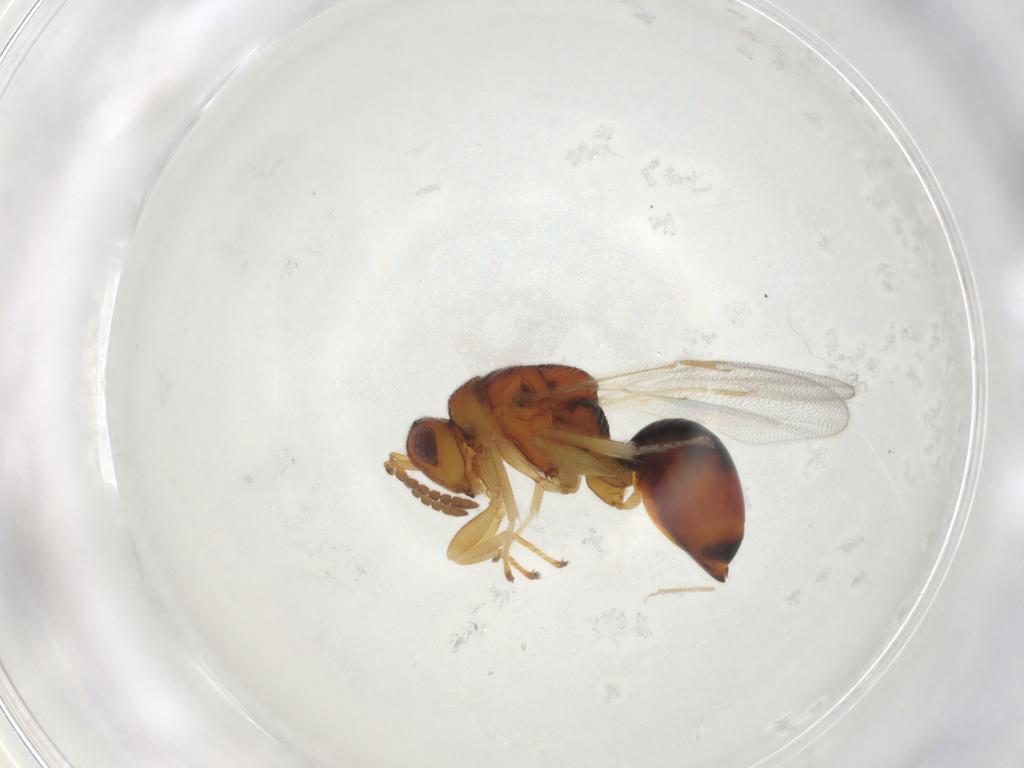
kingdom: Animalia
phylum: Arthropoda
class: Insecta
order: Hymenoptera
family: Eurytomidae
